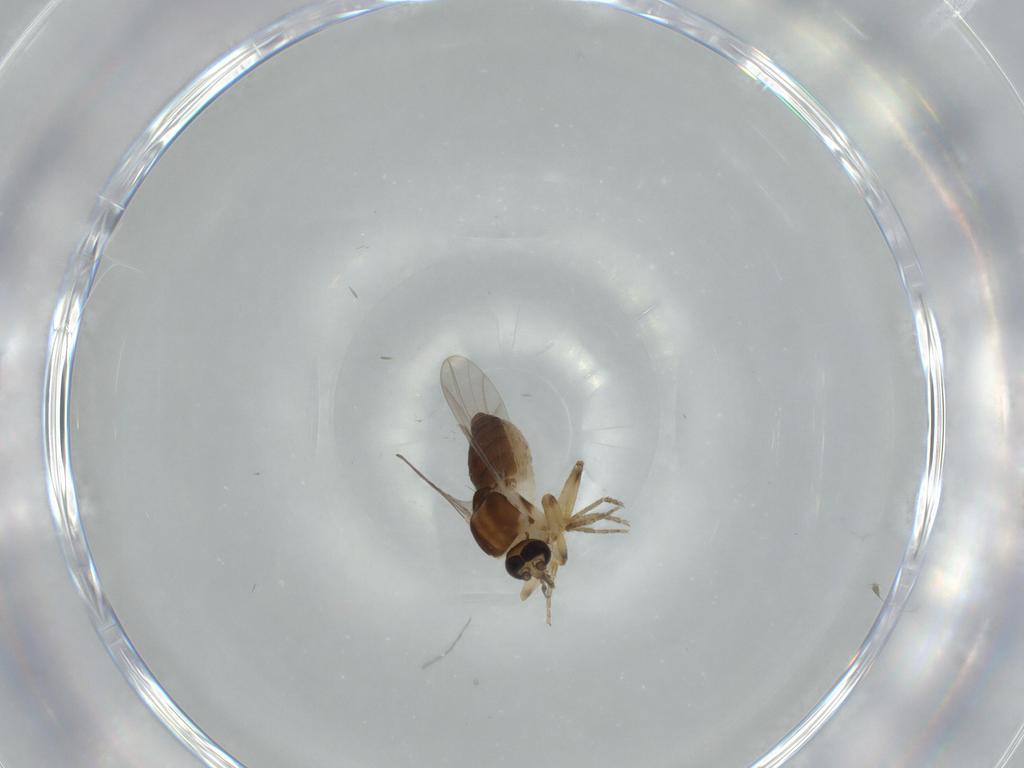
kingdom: Animalia
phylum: Arthropoda
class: Insecta
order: Diptera
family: Ceratopogonidae
